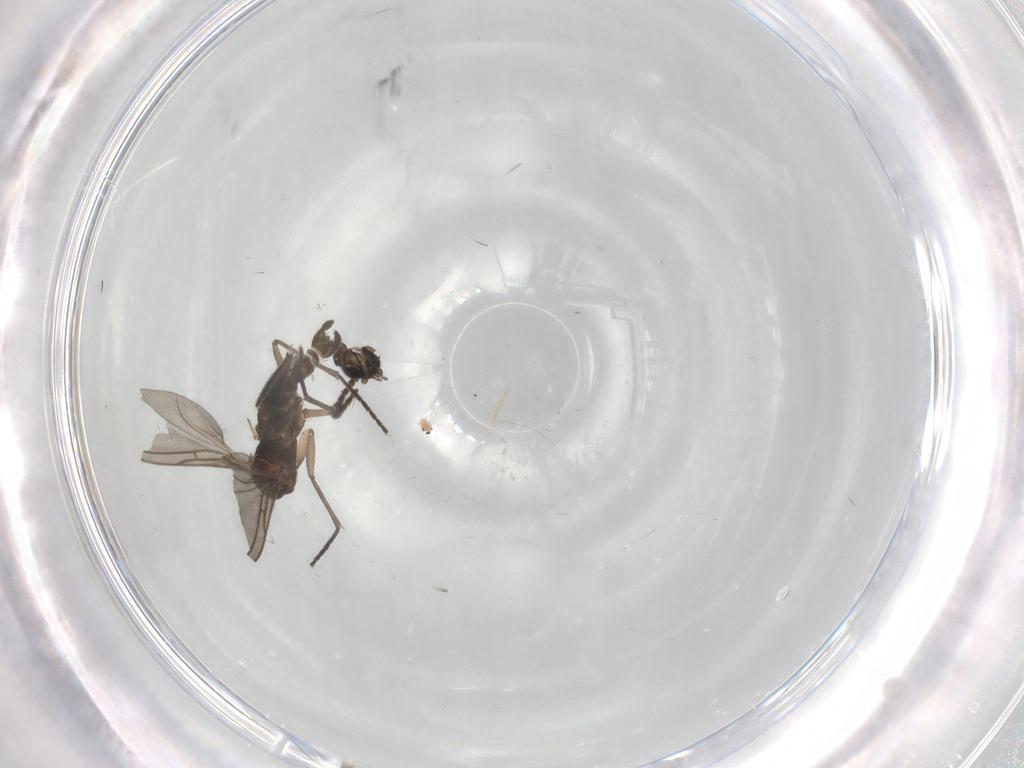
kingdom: Animalia
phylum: Arthropoda
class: Insecta
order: Diptera
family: Cecidomyiidae
